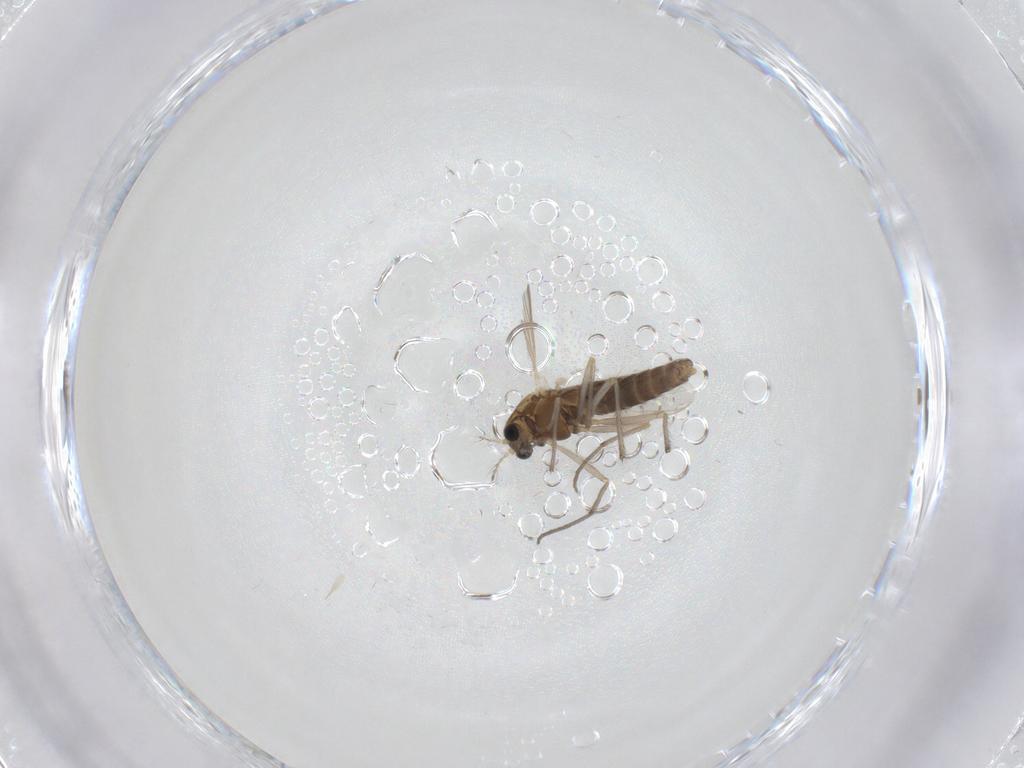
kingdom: Animalia
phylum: Arthropoda
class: Insecta
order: Diptera
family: Chironomidae
